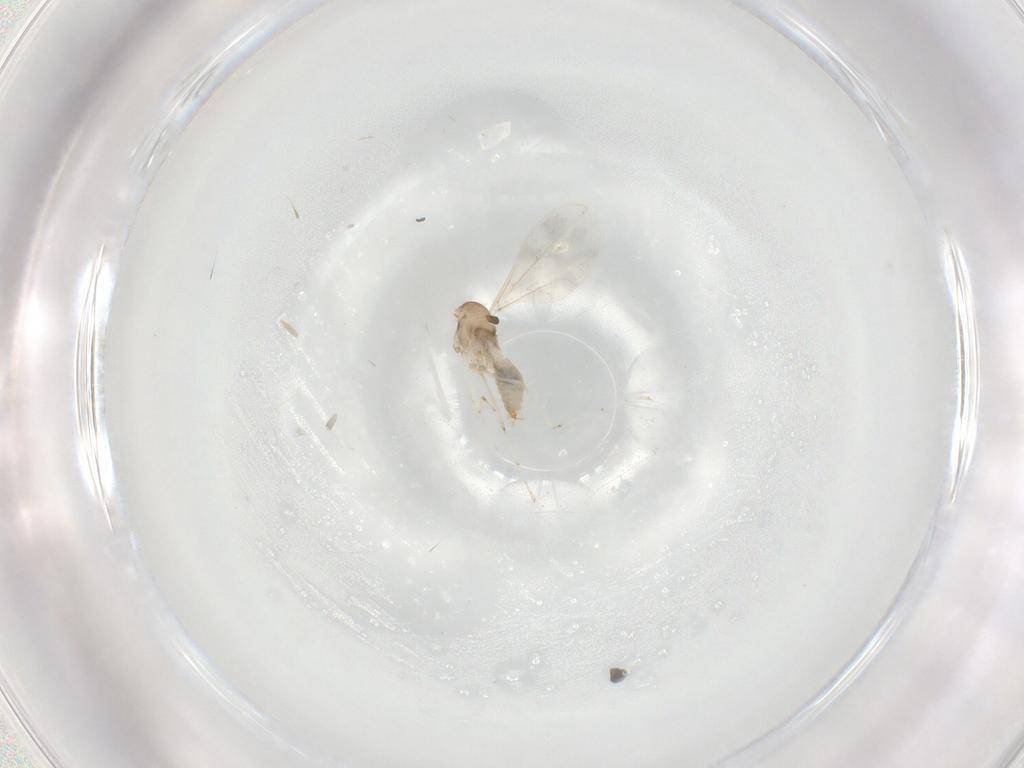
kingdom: Animalia
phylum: Arthropoda
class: Insecta
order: Diptera
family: Cecidomyiidae
